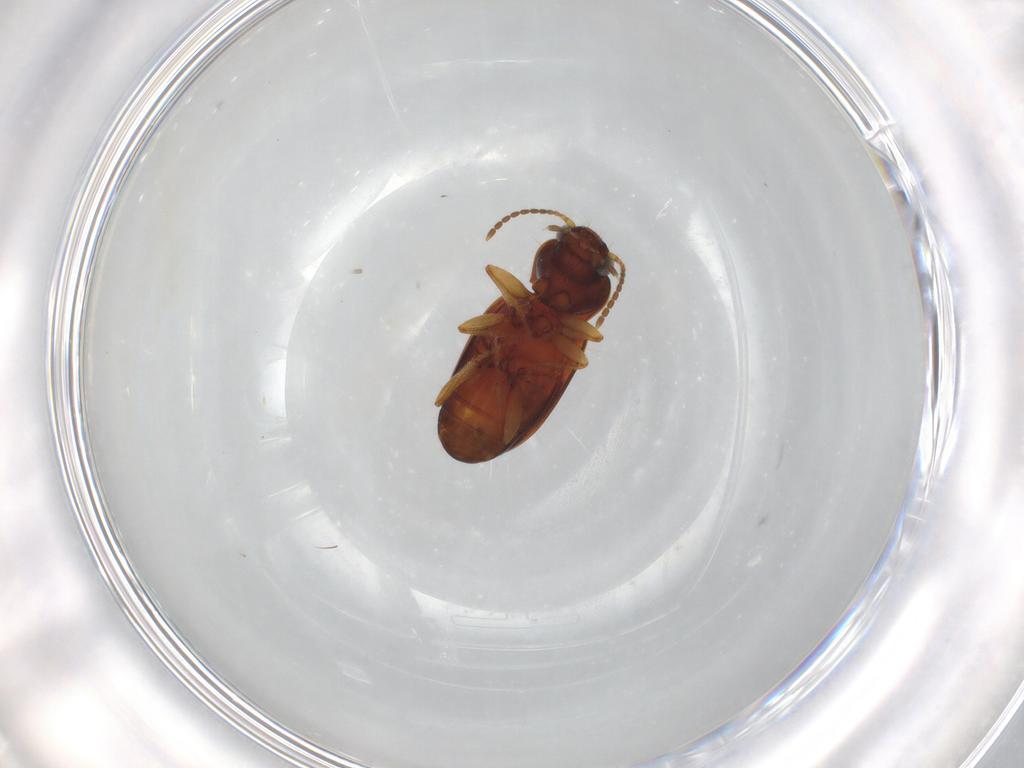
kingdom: Animalia
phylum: Arthropoda
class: Insecta
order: Coleoptera
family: Carabidae
